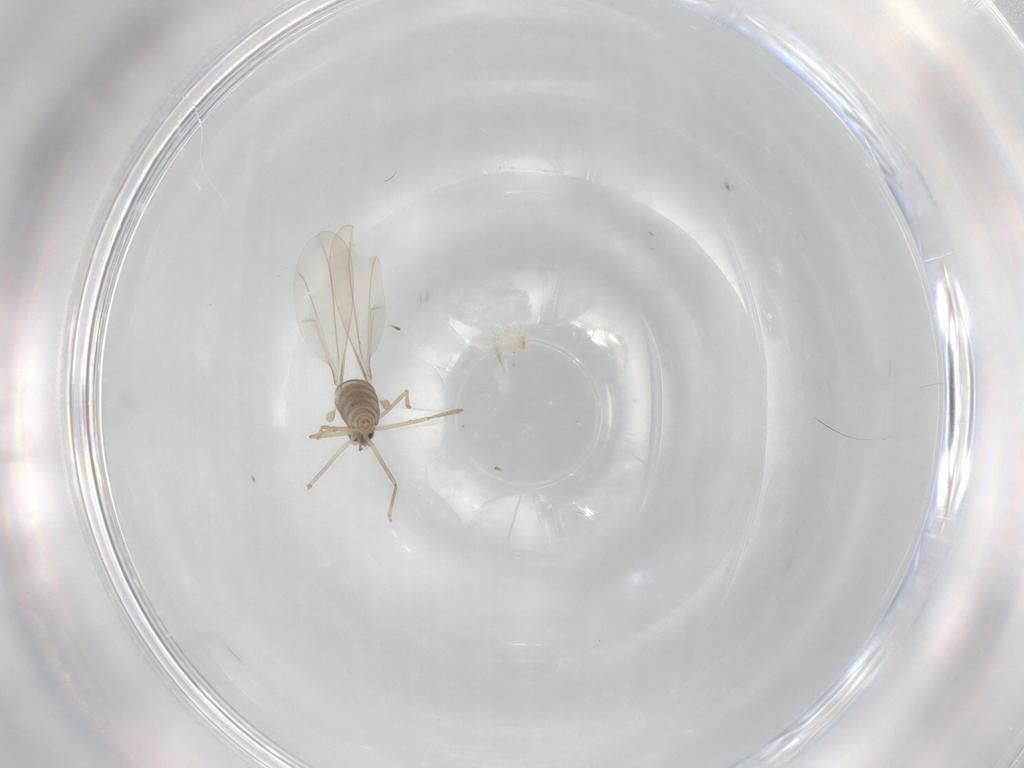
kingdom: Animalia
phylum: Arthropoda
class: Insecta
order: Diptera
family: Cecidomyiidae
